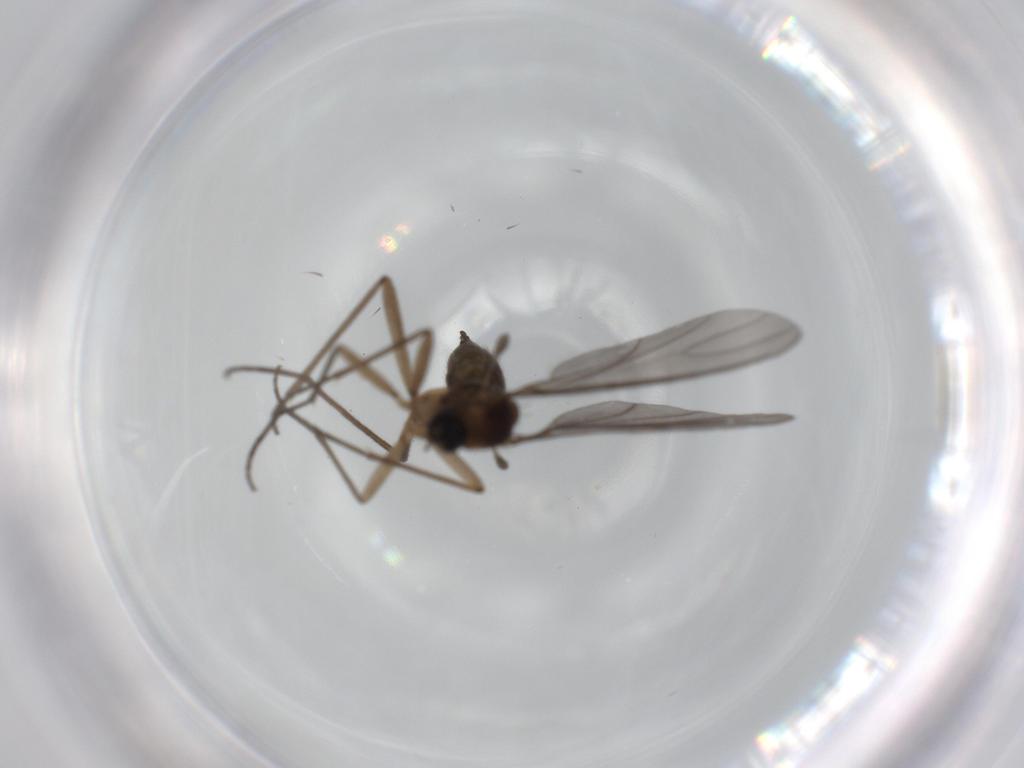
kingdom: Animalia
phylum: Arthropoda
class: Insecta
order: Diptera
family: Sciaridae
